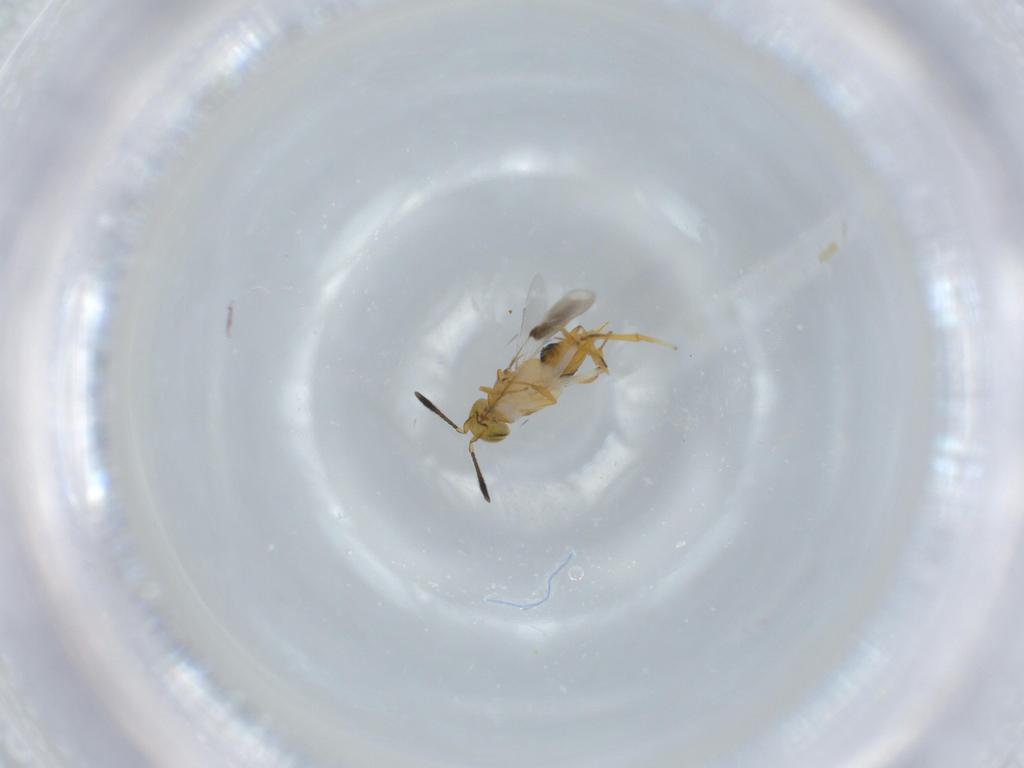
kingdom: Animalia
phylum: Arthropoda
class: Insecta
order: Hymenoptera
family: Encyrtidae
